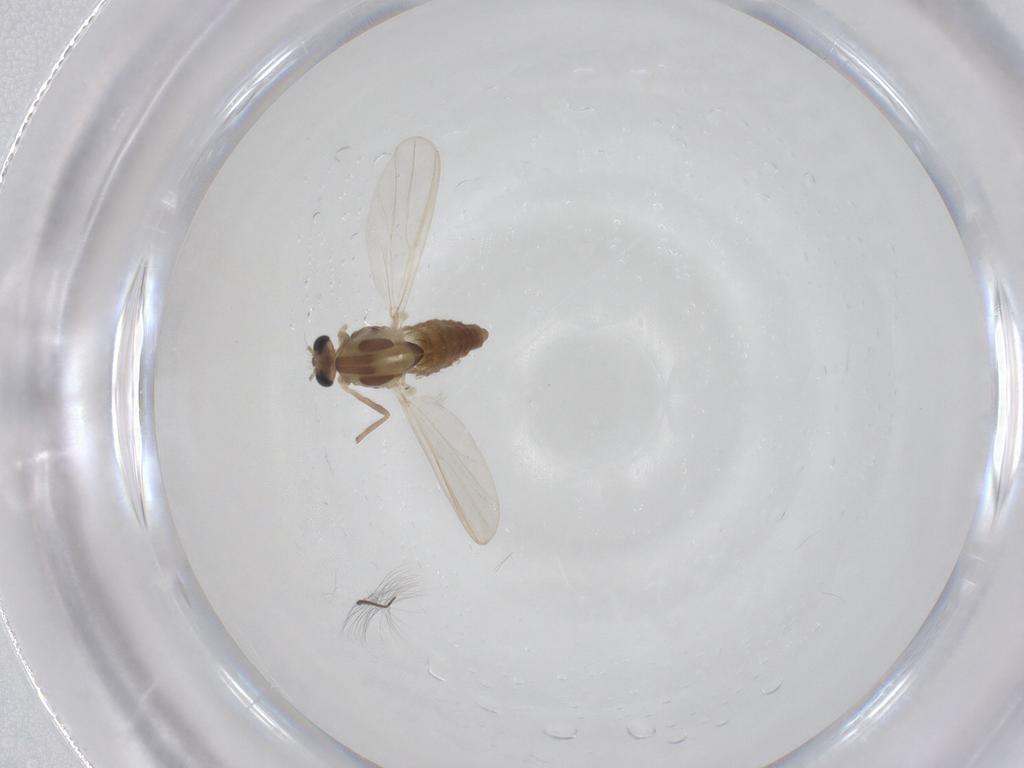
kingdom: Animalia
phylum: Arthropoda
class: Insecta
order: Diptera
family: Chironomidae
